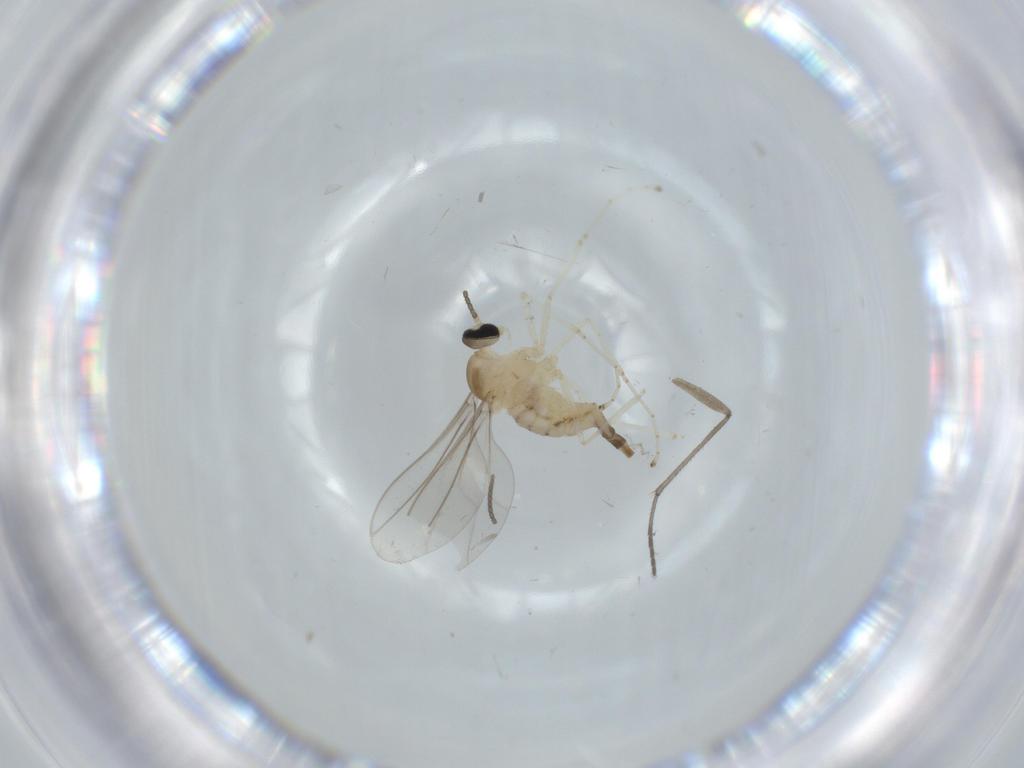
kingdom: Animalia
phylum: Arthropoda
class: Insecta
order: Diptera
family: Cecidomyiidae
